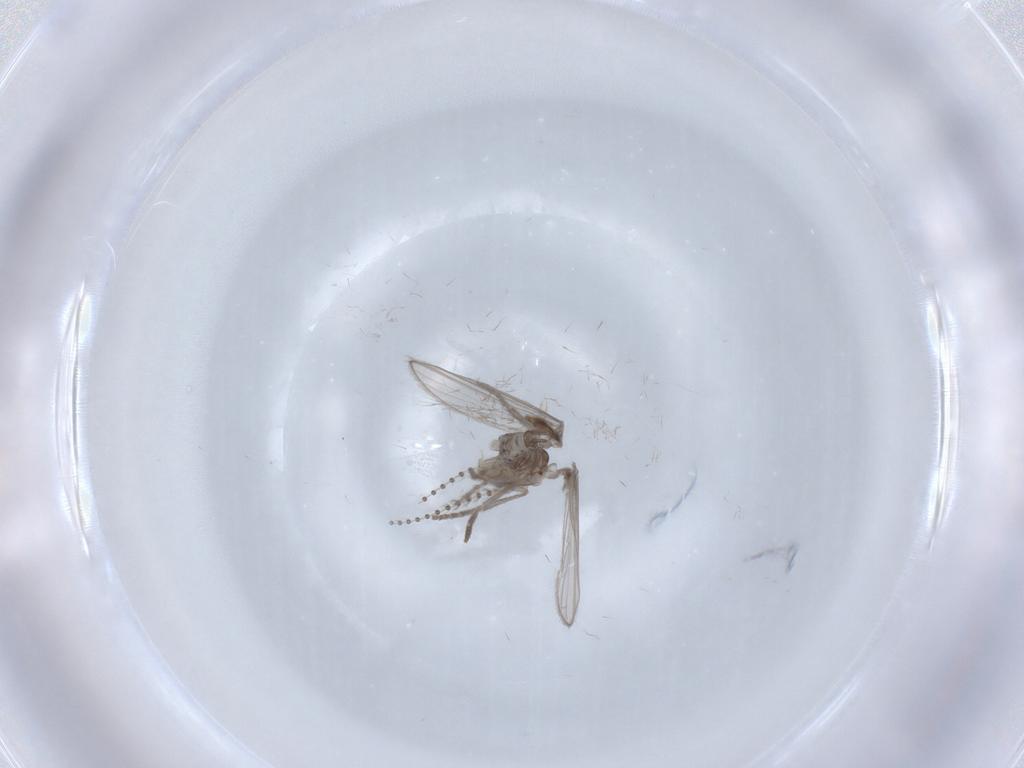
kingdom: Animalia
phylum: Arthropoda
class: Insecta
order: Diptera
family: Psychodidae
